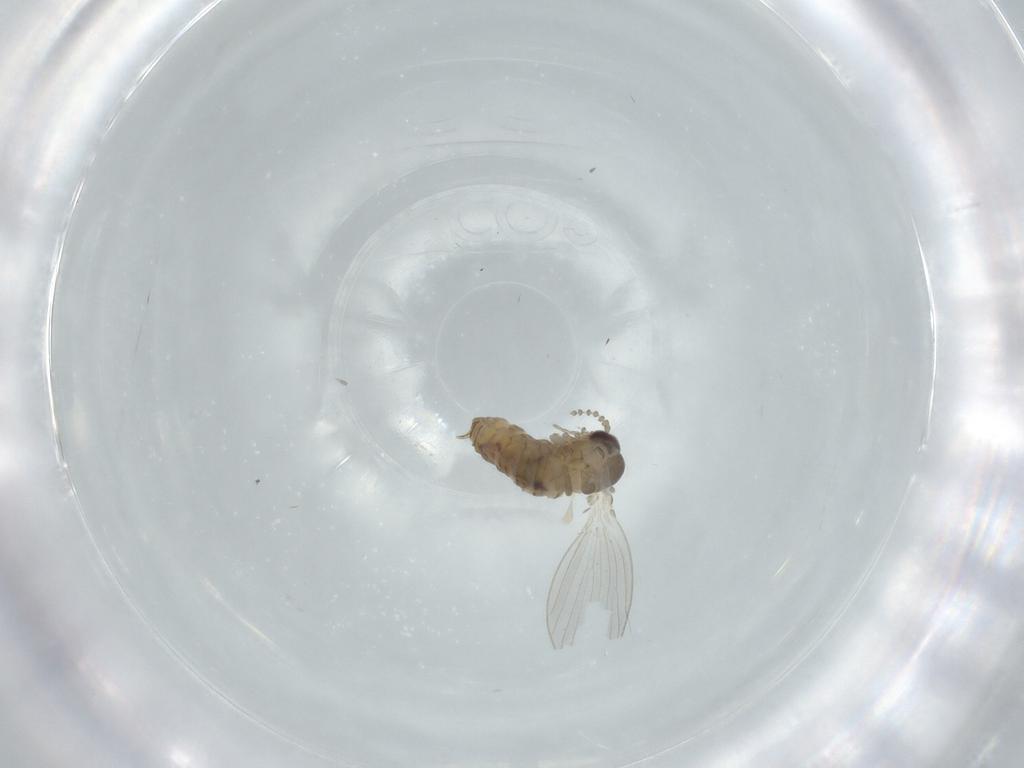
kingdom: Animalia
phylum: Arthropoda
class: Insecta
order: Diptera
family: Psychodidae
